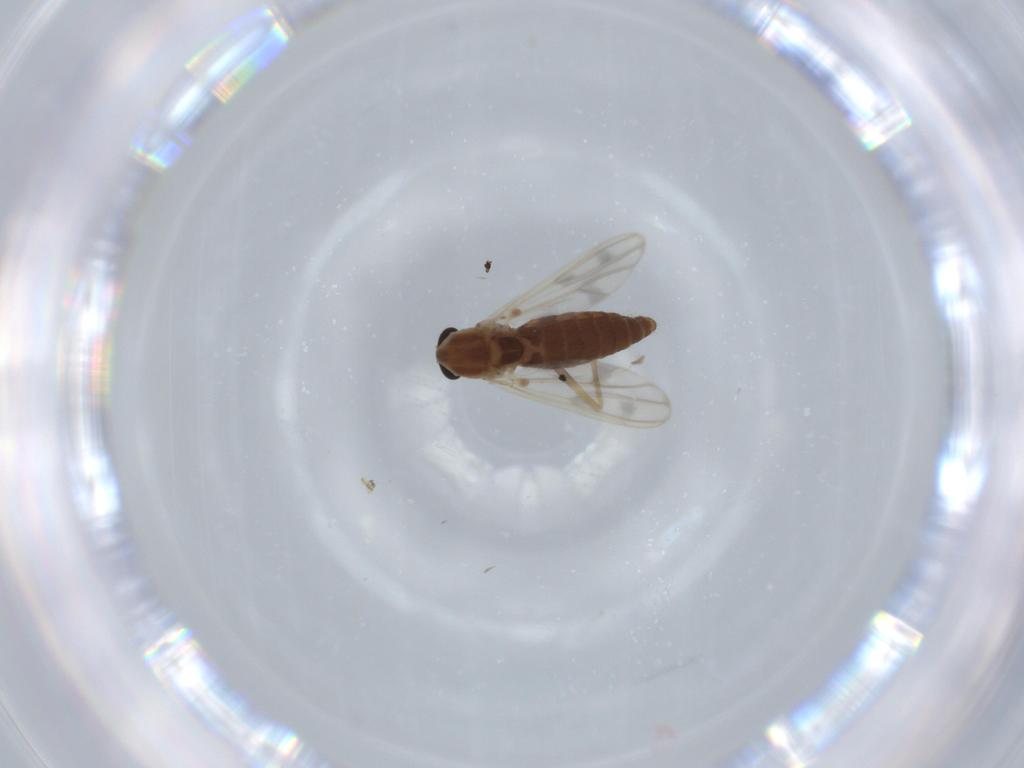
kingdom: Animalia
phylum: Arthropoda
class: Insecta
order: Diptera
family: Chironomidae
